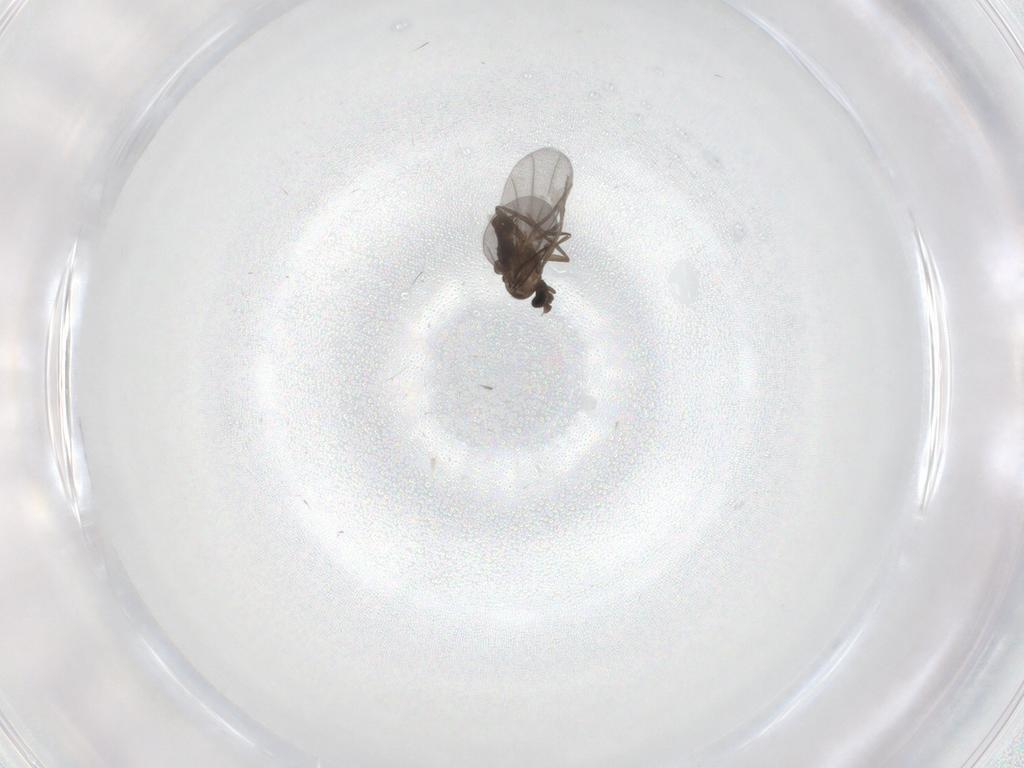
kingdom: Animalia
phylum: Arthropoda
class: Insecta
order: Diptera
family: Phoridae
